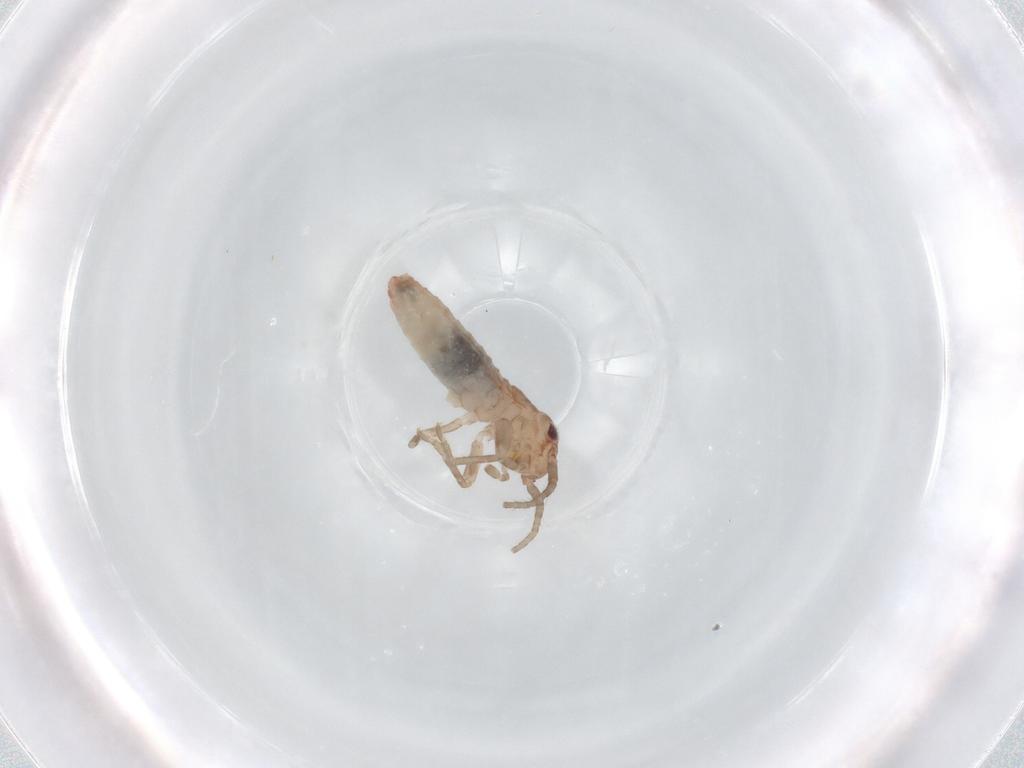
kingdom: Animalia
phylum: Arthropoda
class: Insecta
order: Orthoptera
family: Gryllidae
